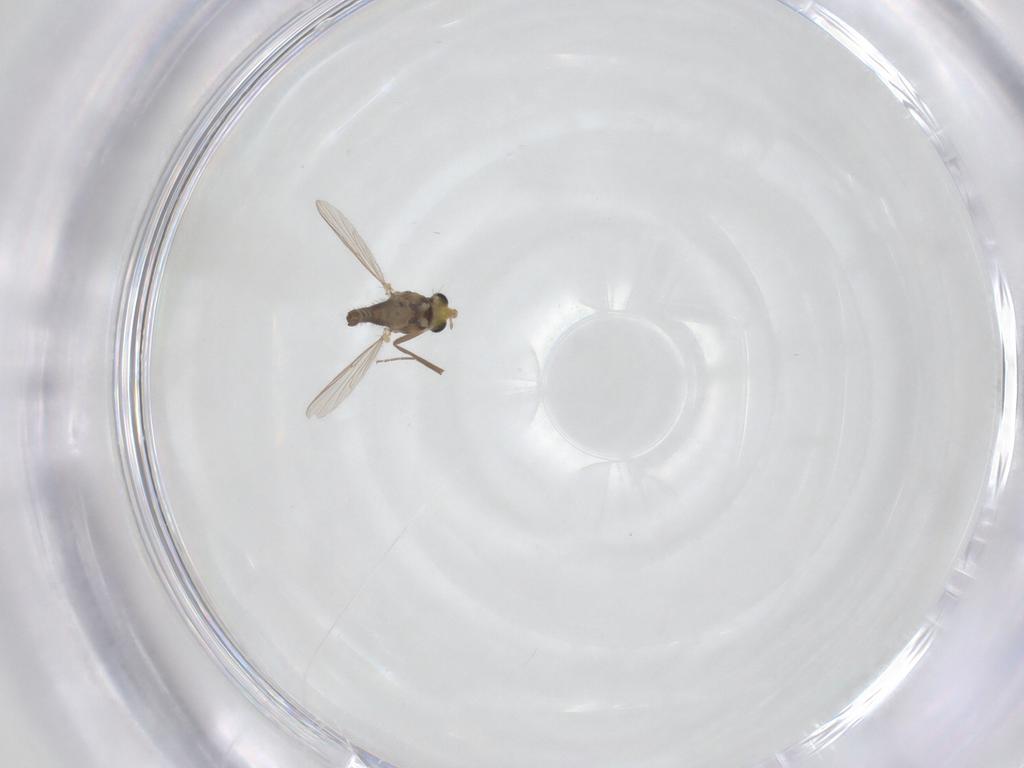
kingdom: Animalia
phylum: Arthropoda
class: Insecta
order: Diptera
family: Chironomidae
